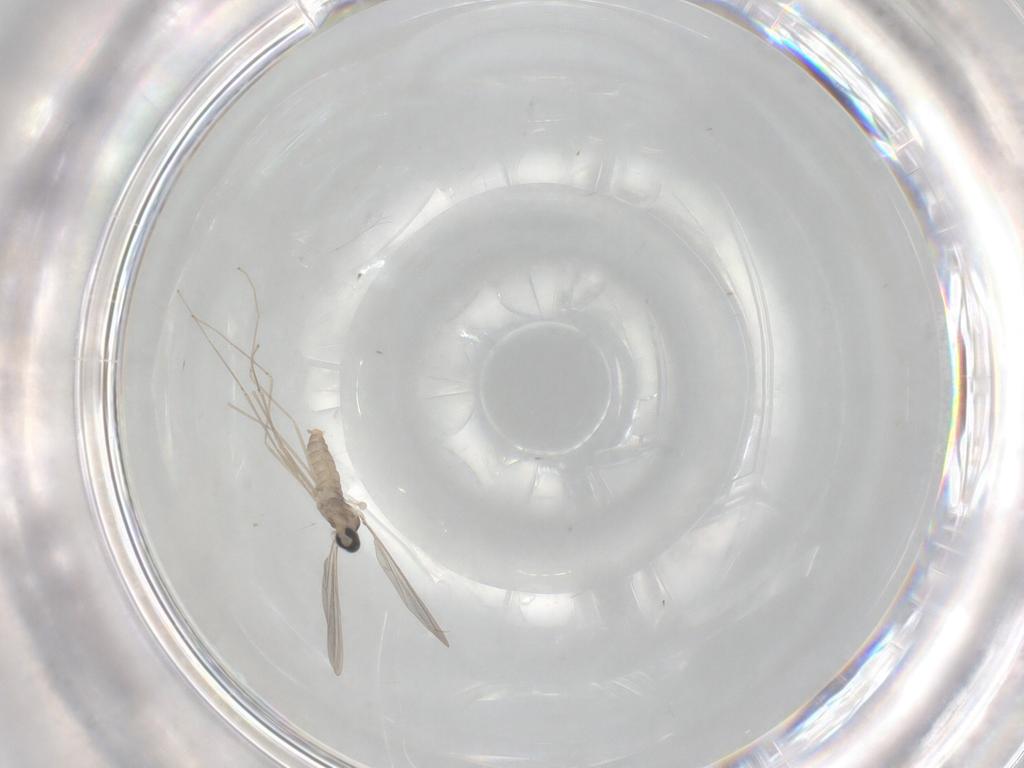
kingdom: Animalia
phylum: Arthropoda
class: Insecta
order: Diptera
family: Cecidomyiidae
